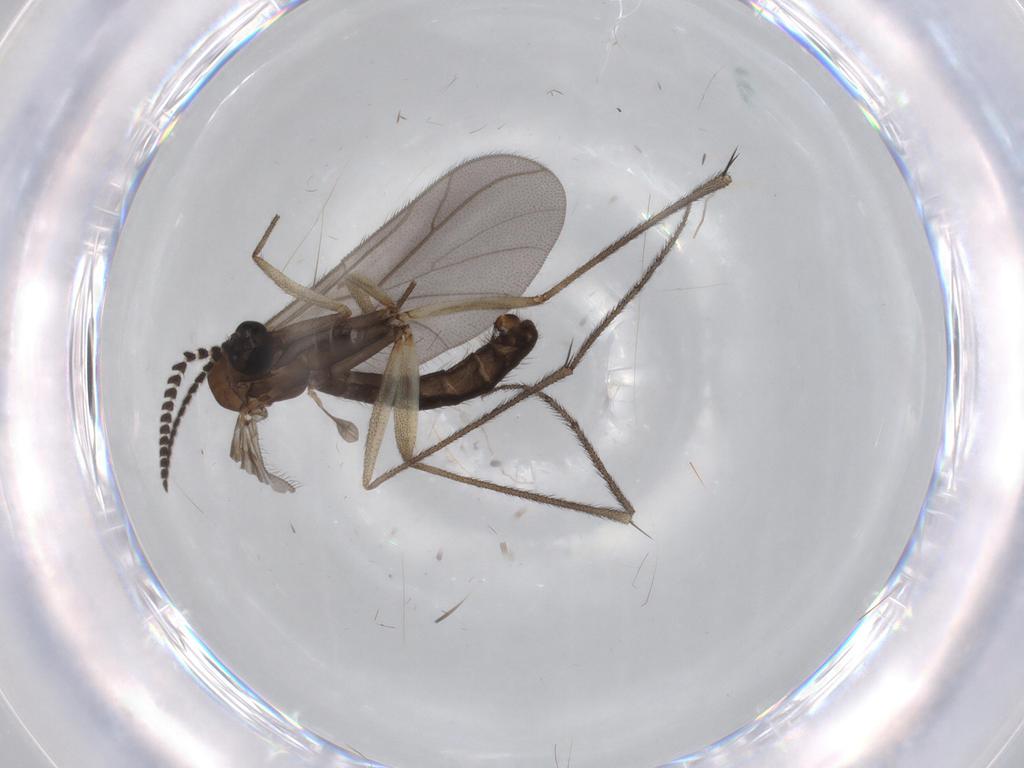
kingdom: Animalia
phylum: Arthropoda
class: Insecta
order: Diptera
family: Ditomyiidae
